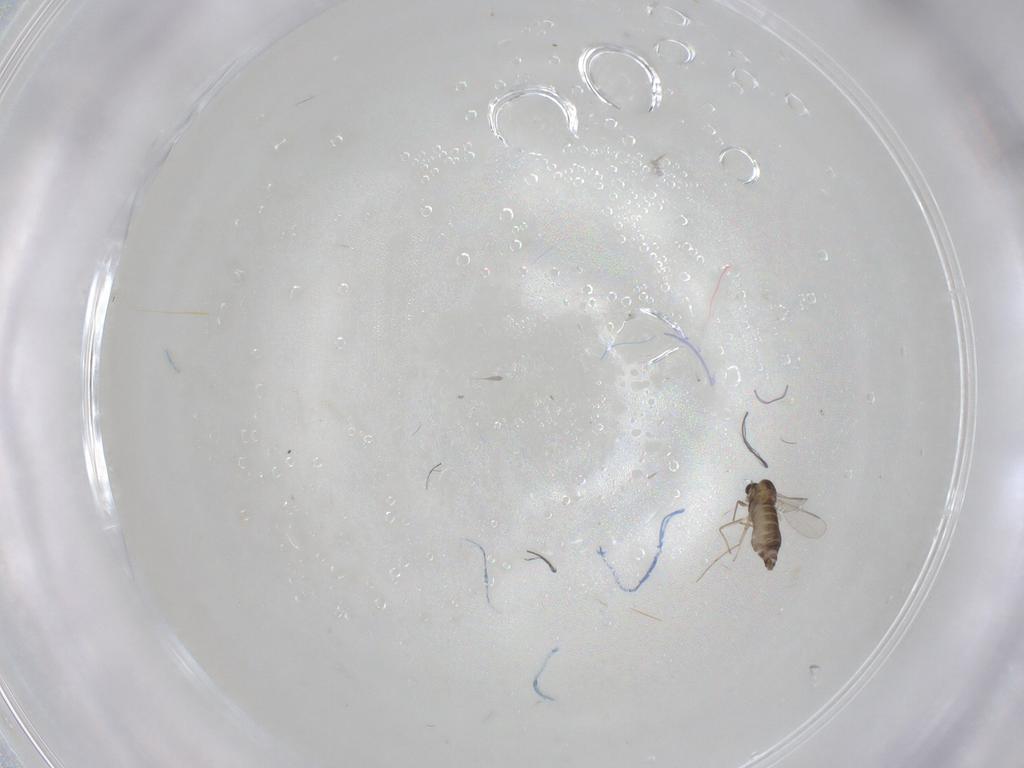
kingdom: Animalia
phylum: Arthropoda
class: Insecta
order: Diptera
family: Chironomidae
